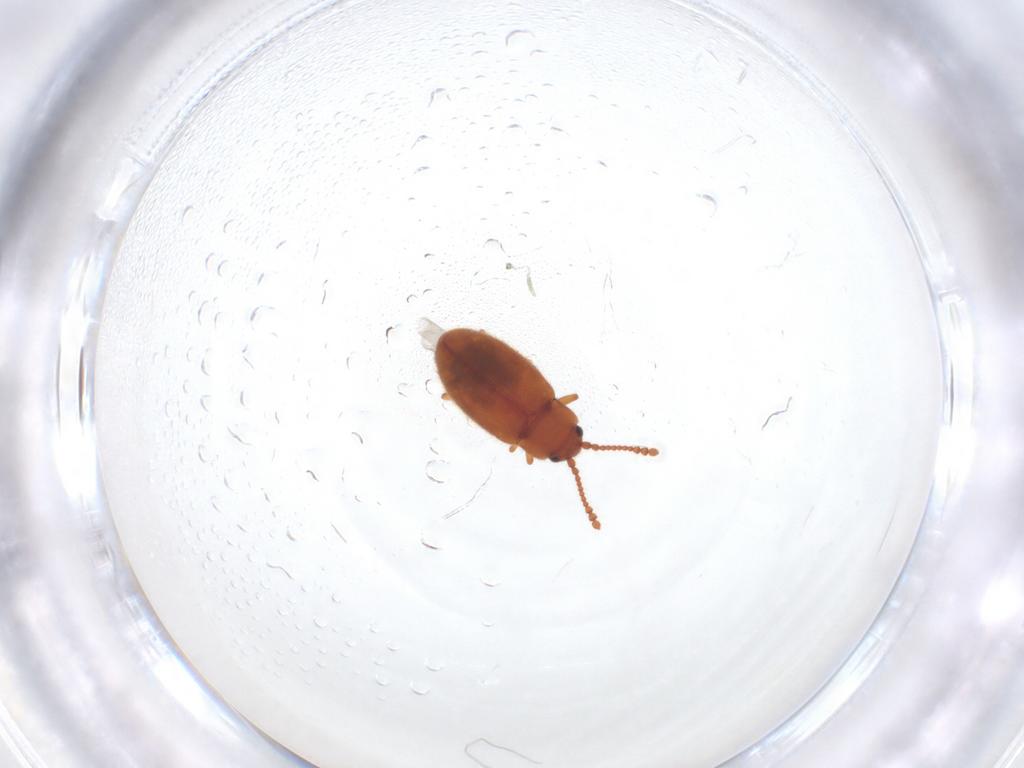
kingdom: Animalia
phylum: Arthropoda
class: Insecta
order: Coleoptera
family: Cryptophagidae
